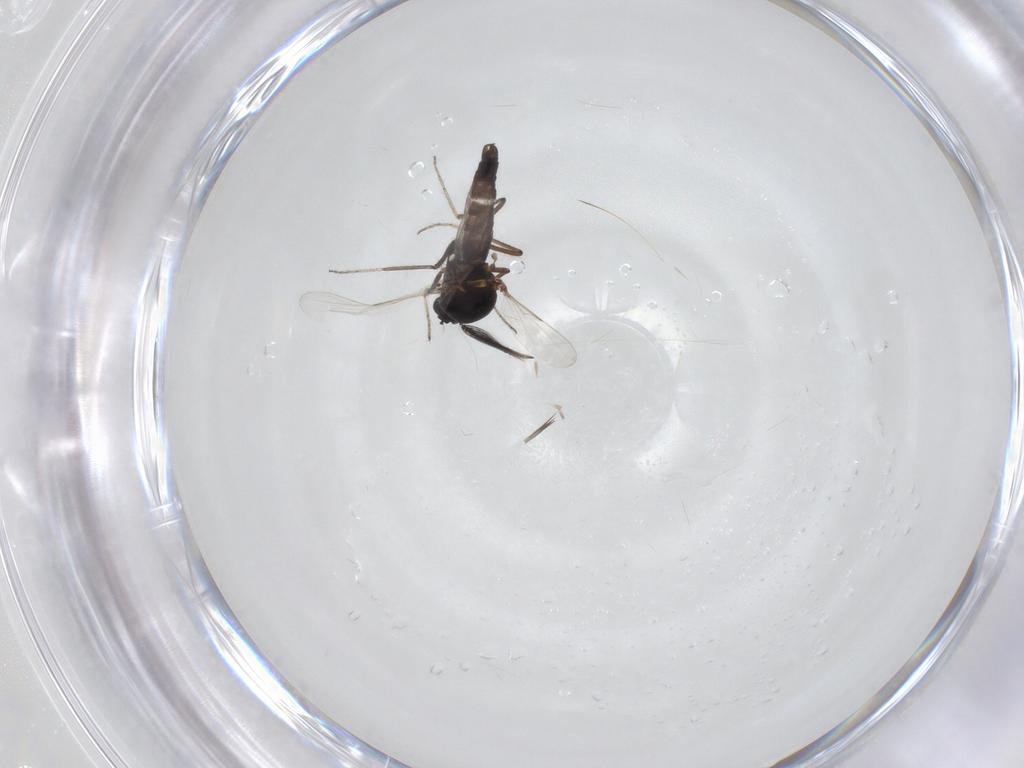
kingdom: Animalia
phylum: Arthropoda
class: Insecta
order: Diptera
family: Ceratopogonidae
